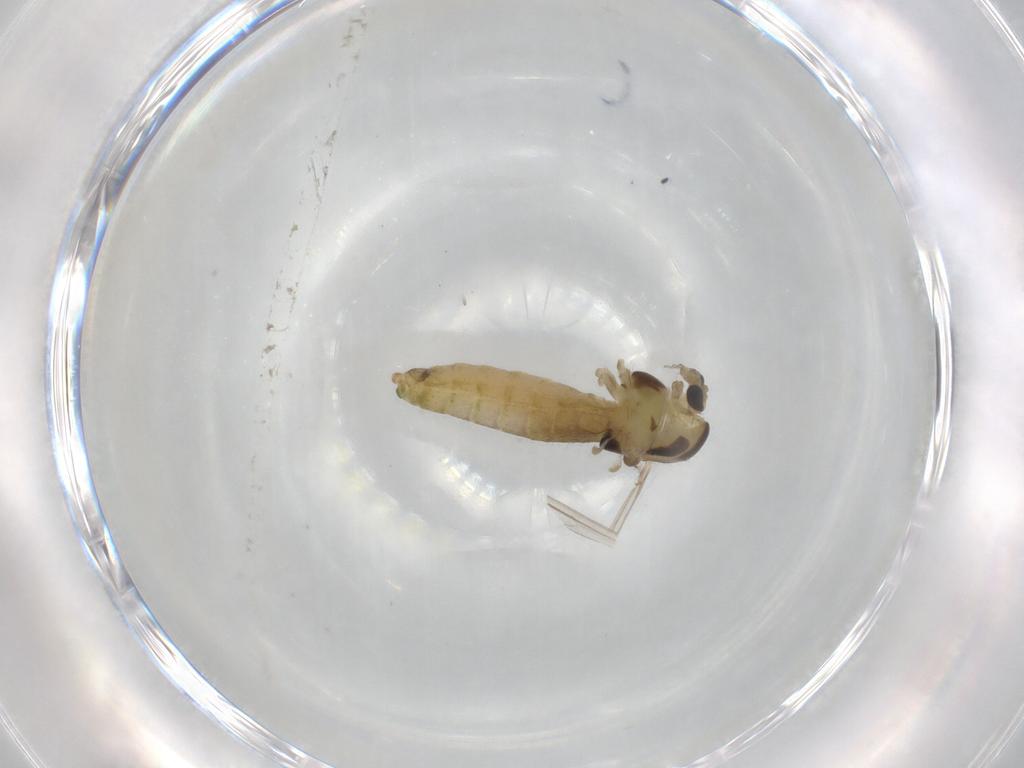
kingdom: Animalia
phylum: Arthropoda
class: Insecta
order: Diptera
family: Chironomidae
